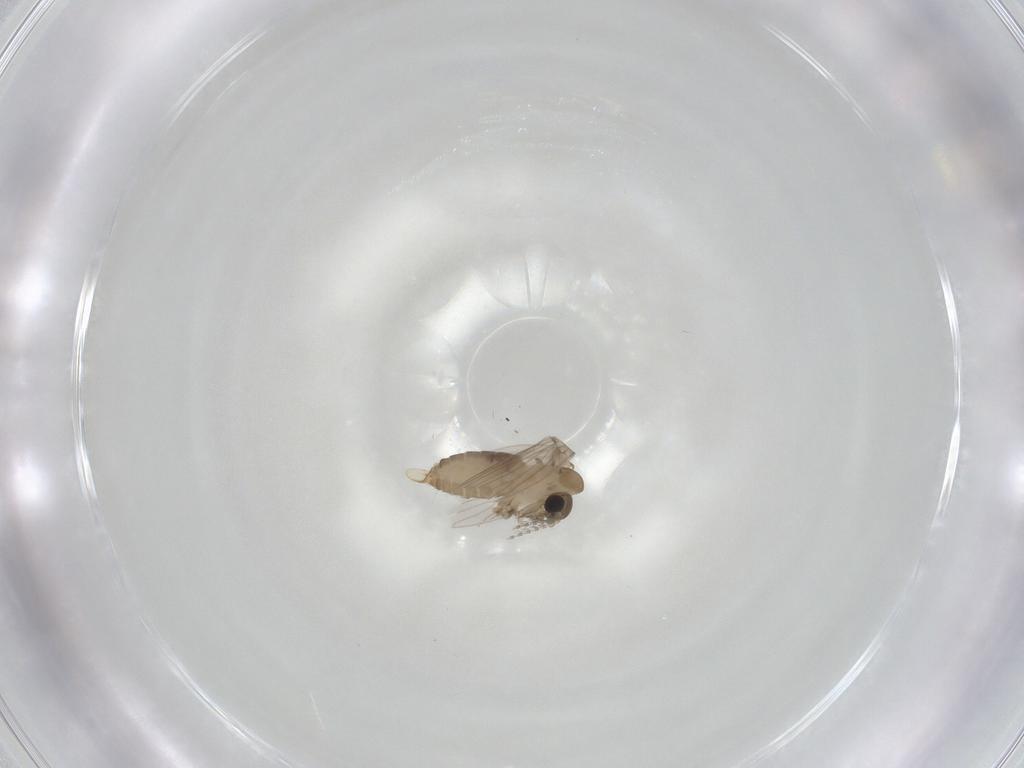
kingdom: Animalia
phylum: Arthropoda
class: Insecta
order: Diptera
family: Psychodidae
